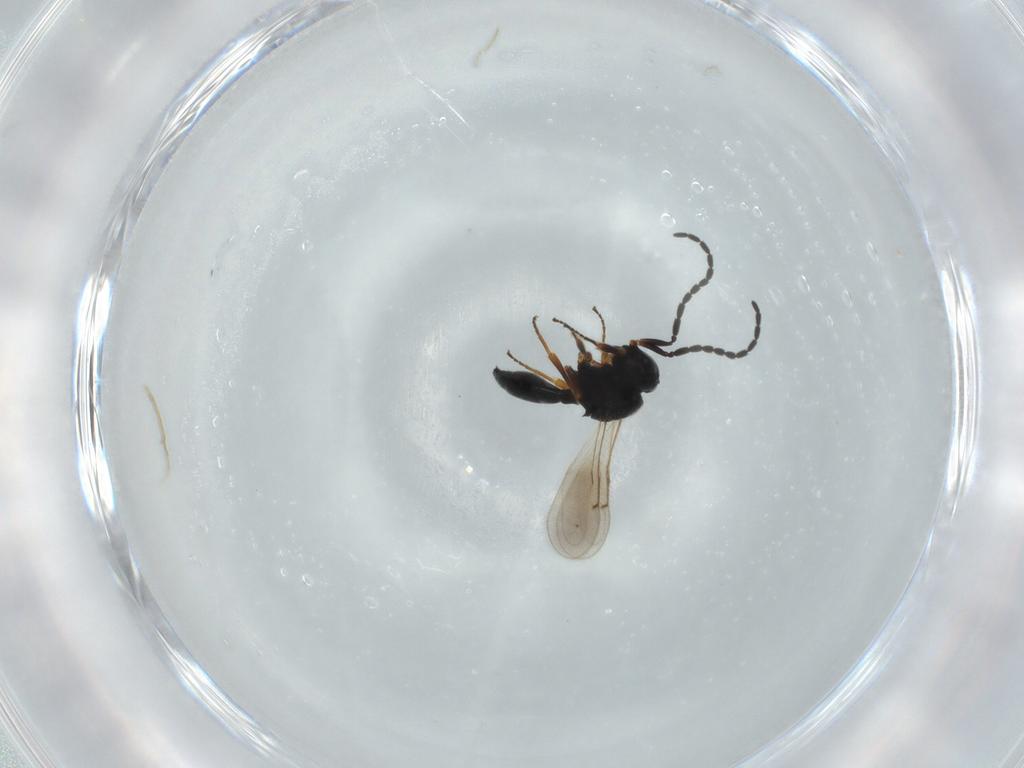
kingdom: Animalia
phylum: Arthropoda
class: Insecta
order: Hymenoptera
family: Scelionidae
